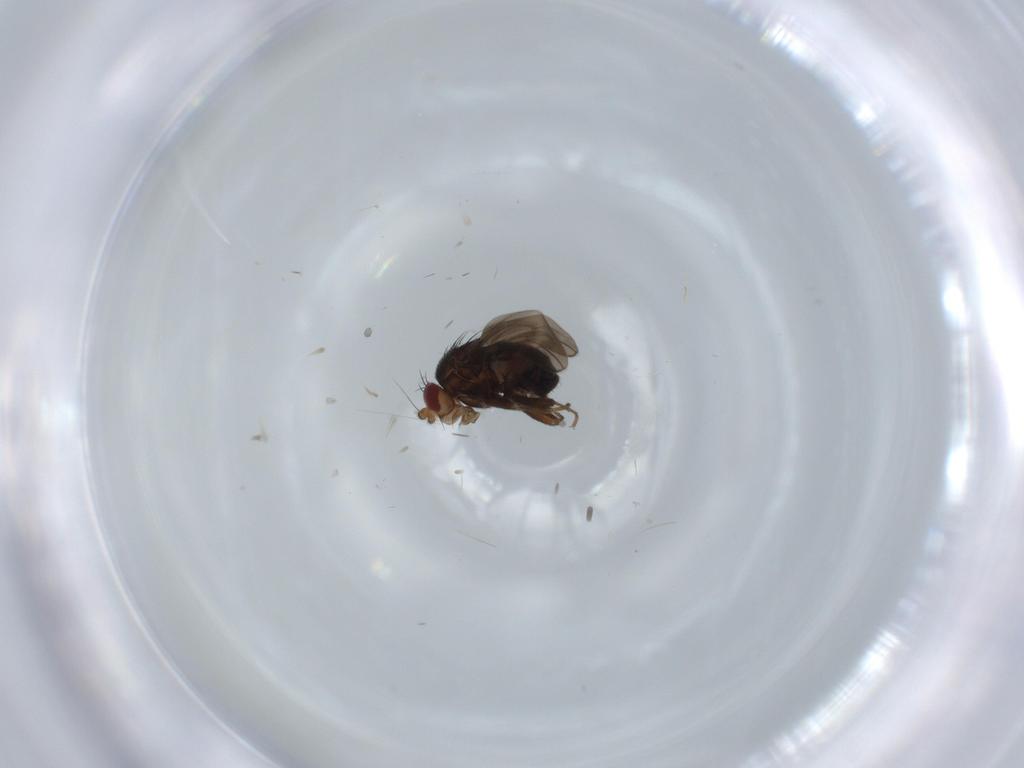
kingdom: Animalia
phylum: Arthropoda
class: Insecta
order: Diptera
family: Sphaeroceridae
